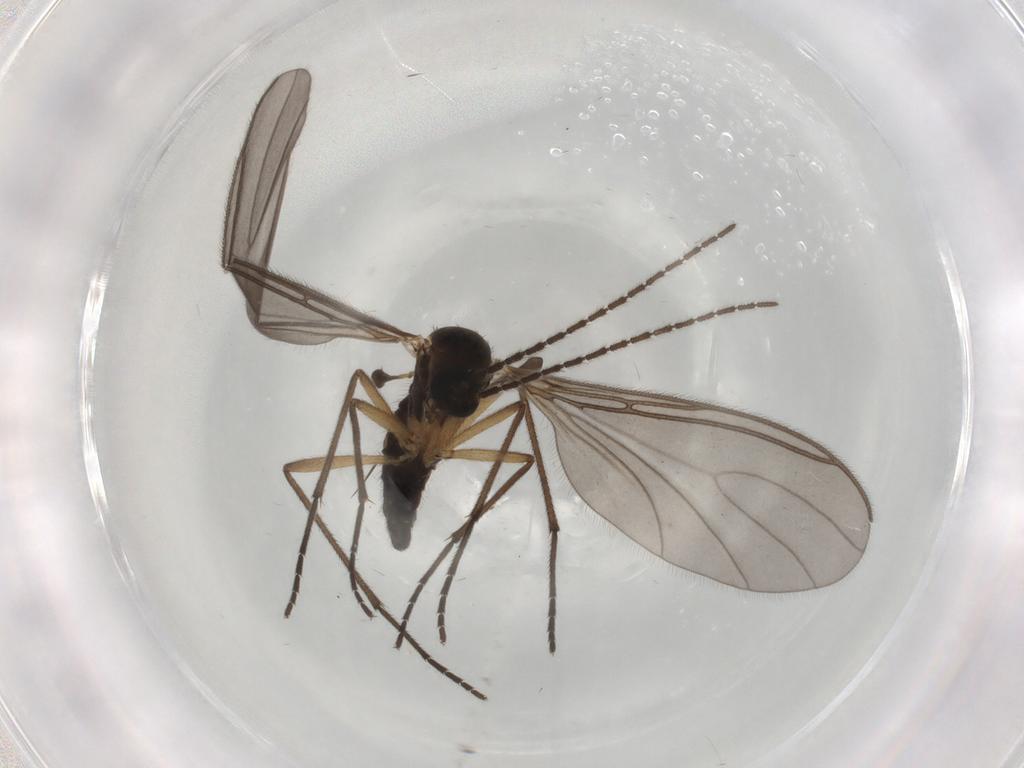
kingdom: Animalia
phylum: Arthropoda
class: Insecta
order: Diptera
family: Sciaridae
